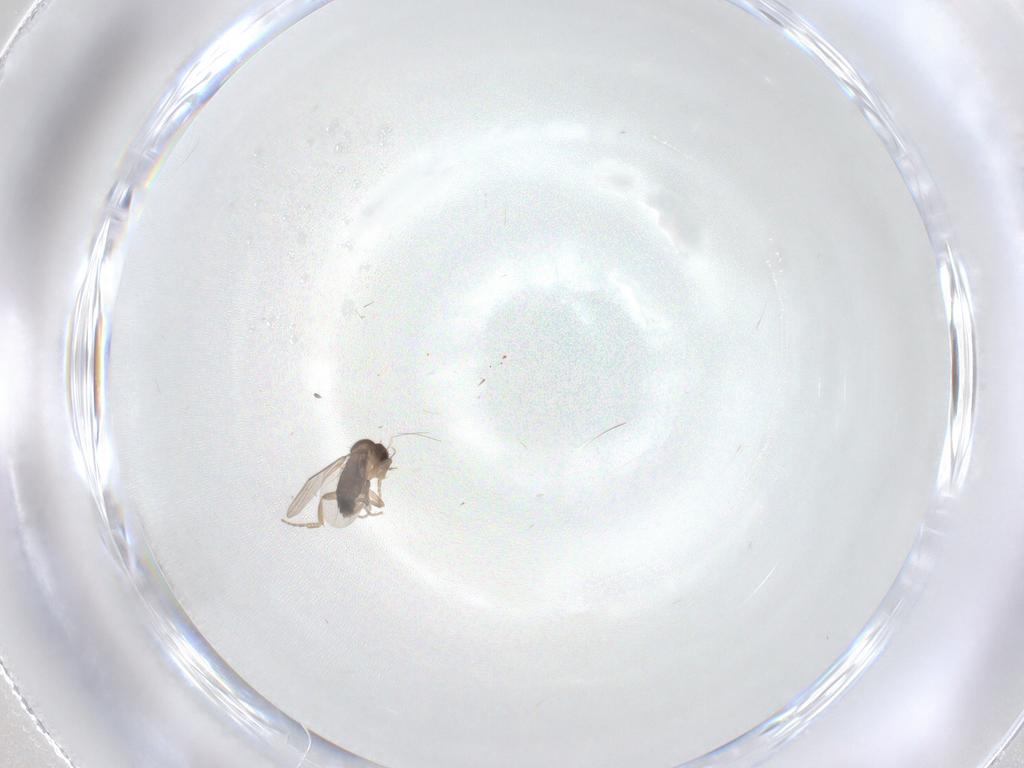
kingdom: Animalia
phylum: Arthropoda
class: Insecta
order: Diptera
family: Phoridae
